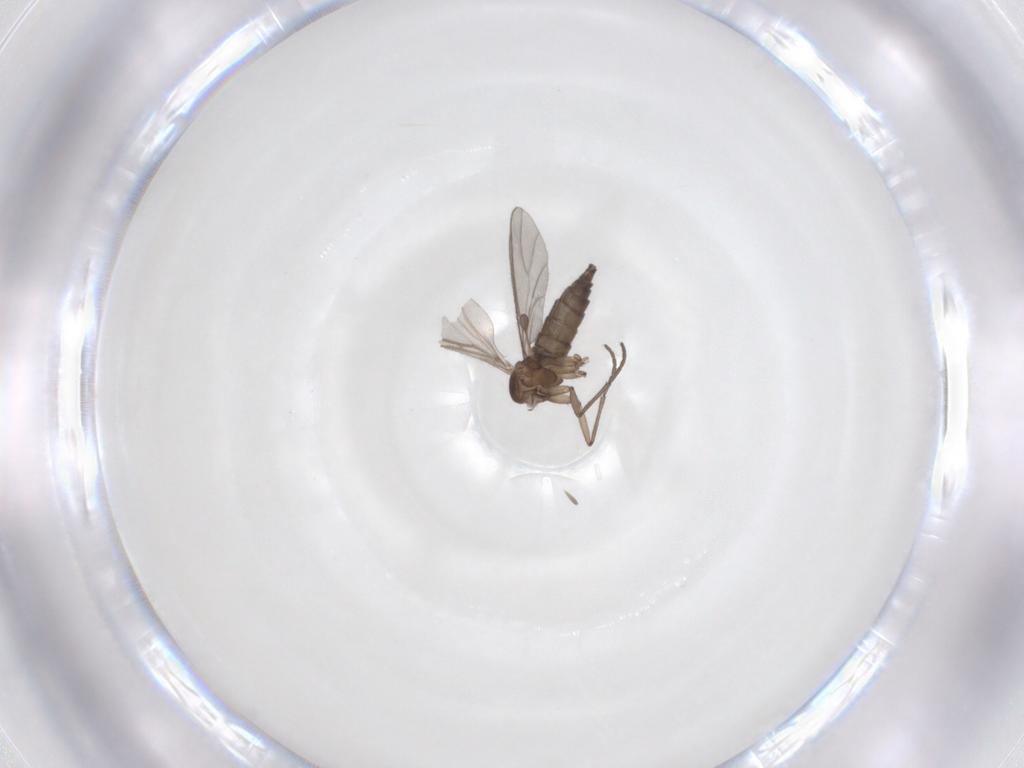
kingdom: Animalia
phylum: Arthropoda
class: Insecta
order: Diptera
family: Sciaridae
